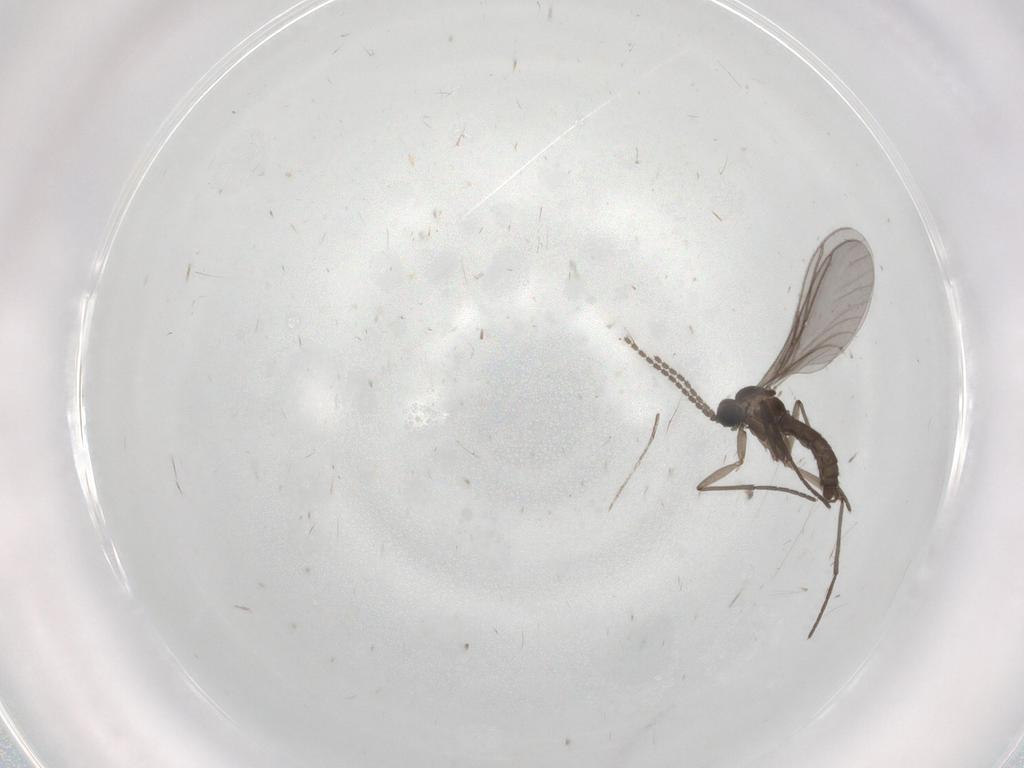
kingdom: Animalia
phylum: Arthropoda
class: Insecta
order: Diptera
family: Sciaridae
